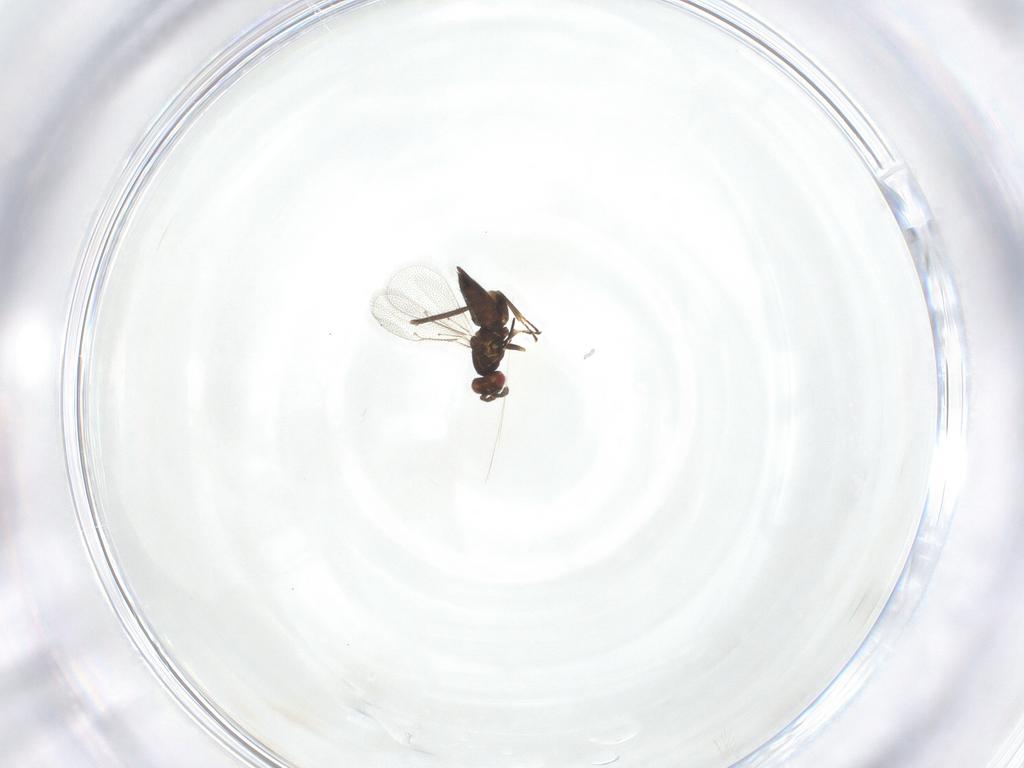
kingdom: Animalia
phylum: Arthropoda
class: Insecta
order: Hymenoptera
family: Eulophidae
